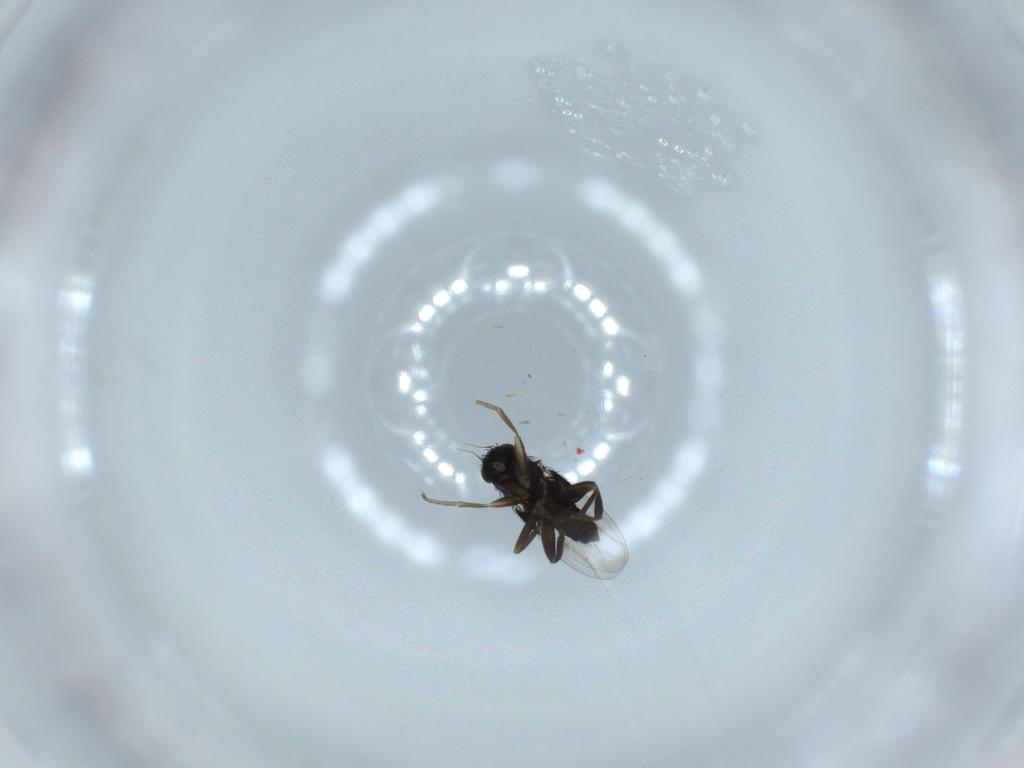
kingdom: Animalia
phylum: Arthropoda
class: Insecta
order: Diptera
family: Phoridae
